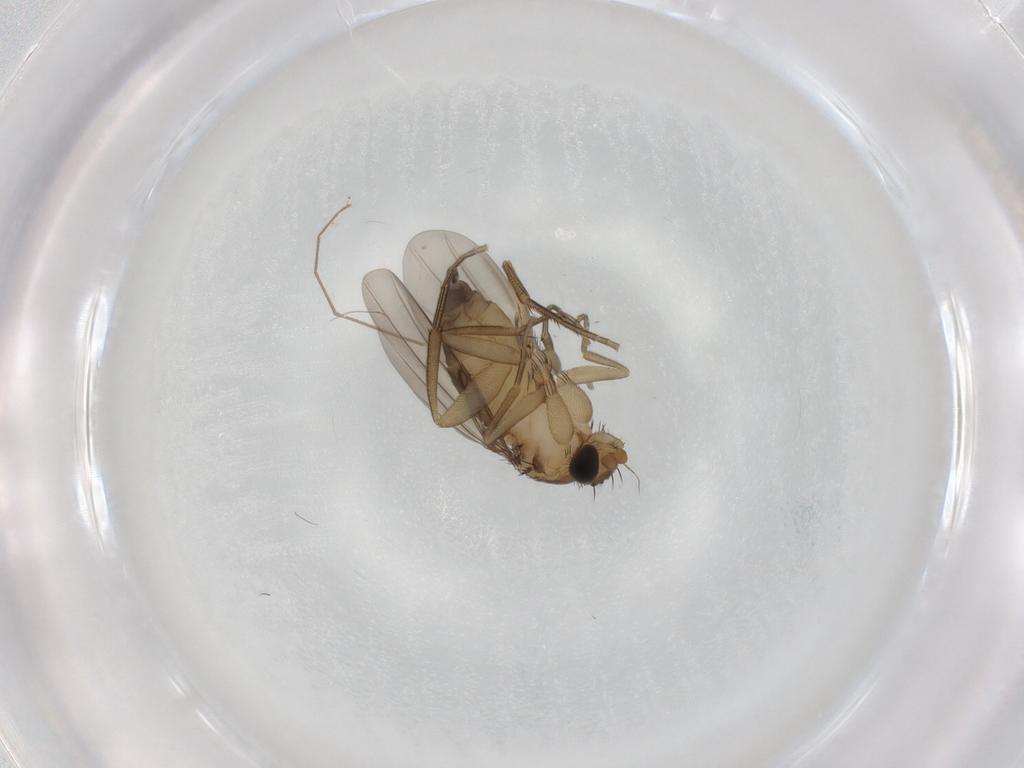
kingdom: Animalia
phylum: Arthropoda
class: Insecta
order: Diptera
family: Phoridae
